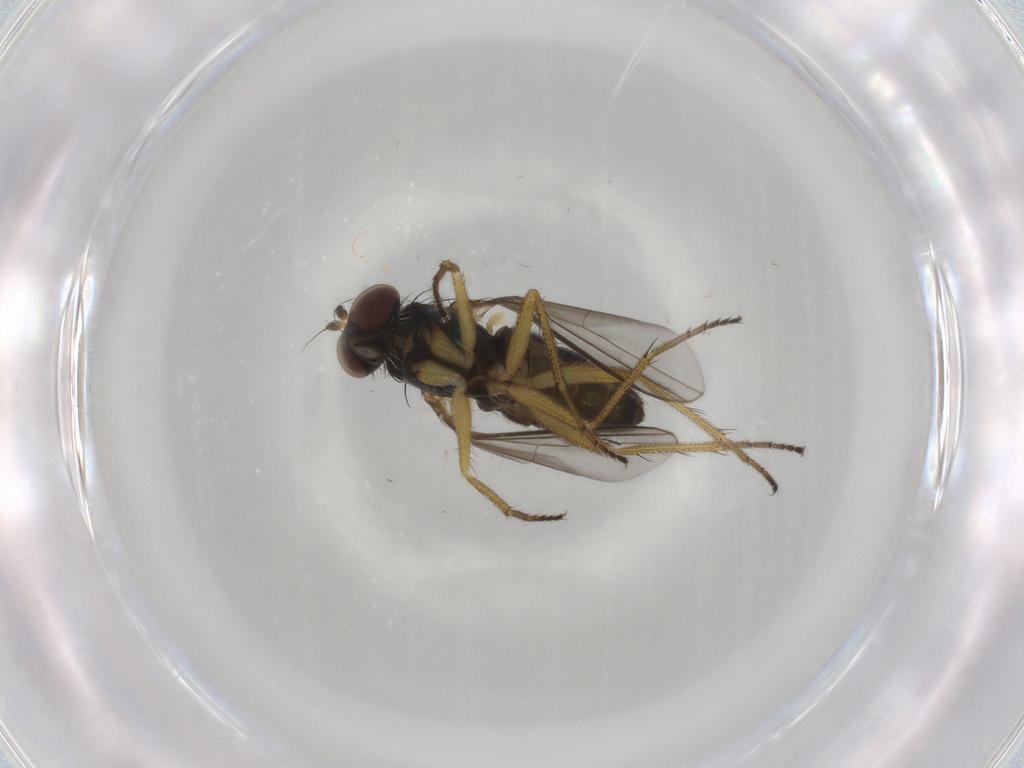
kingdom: Animalia
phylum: Arthropoda
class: Insecta
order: Diptera
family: Dolichopodidae
